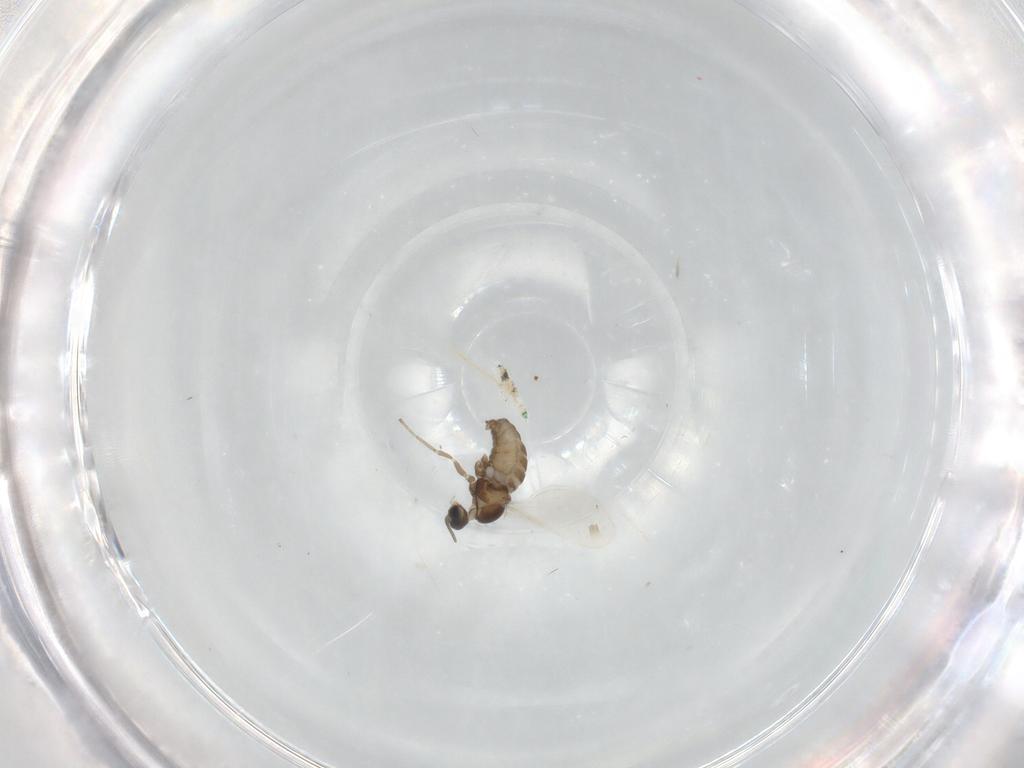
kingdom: Animalia
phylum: Arthropoda
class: Insecta
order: Diptera
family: Cecidomyiidae
